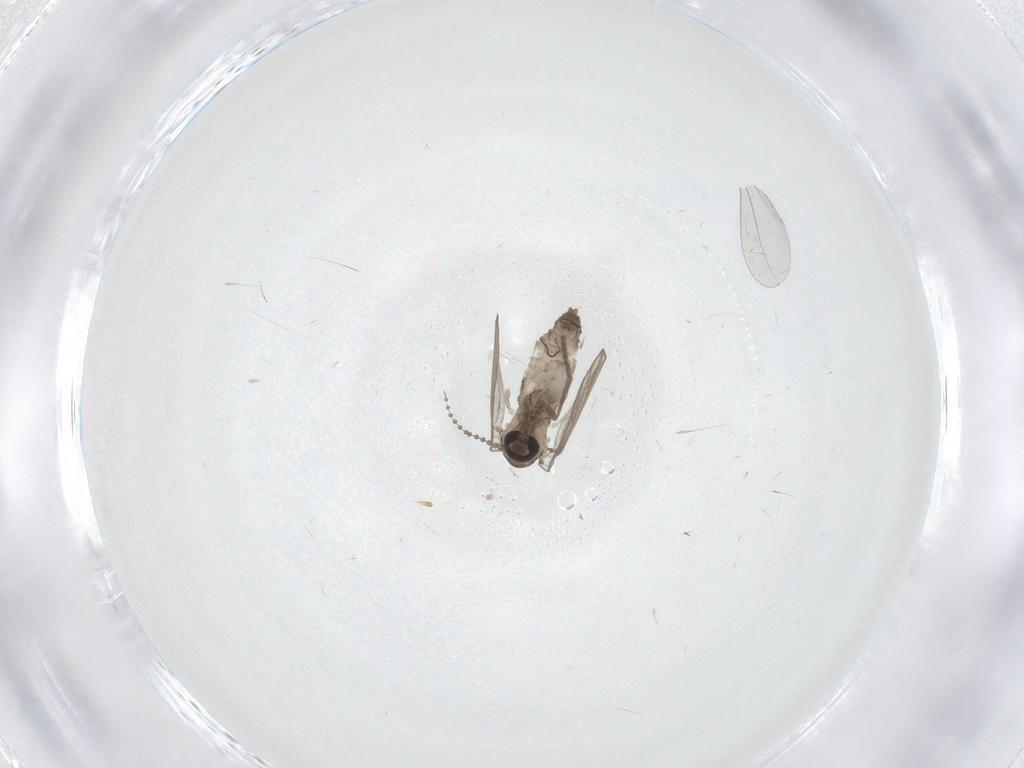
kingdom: Animalia
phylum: Arthropoda
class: Insecta
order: Diptera
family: Psychodidae
